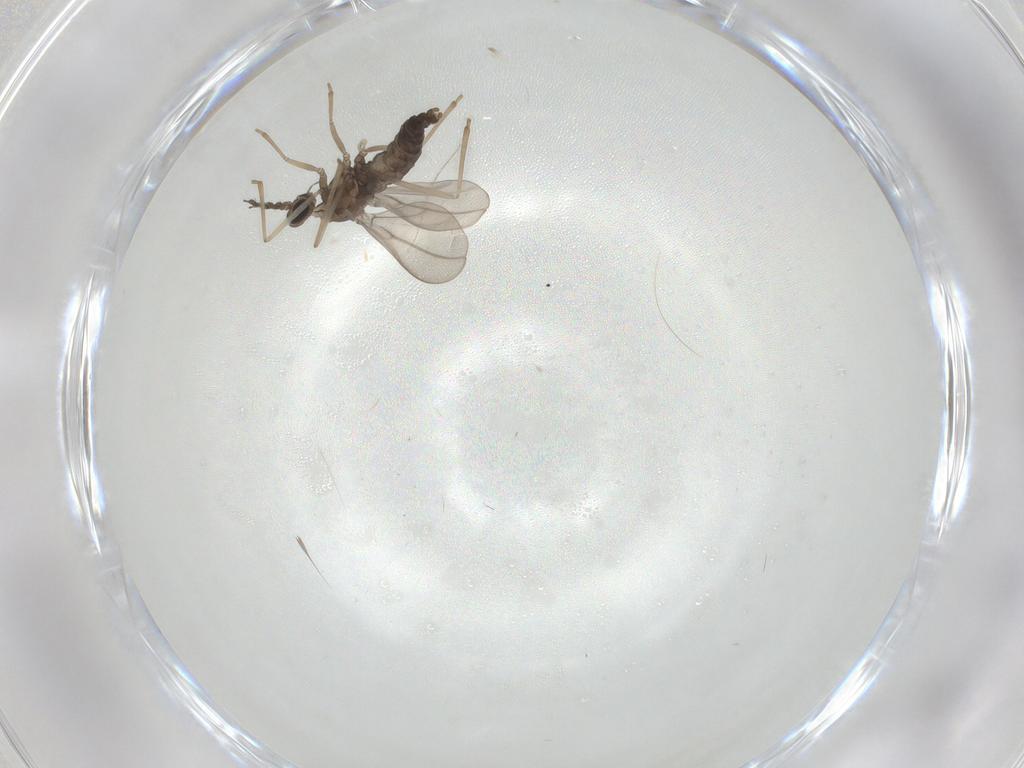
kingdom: Animalia
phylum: Arthropoda
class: Insecta
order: Diptera
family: Cecidomyiidae
